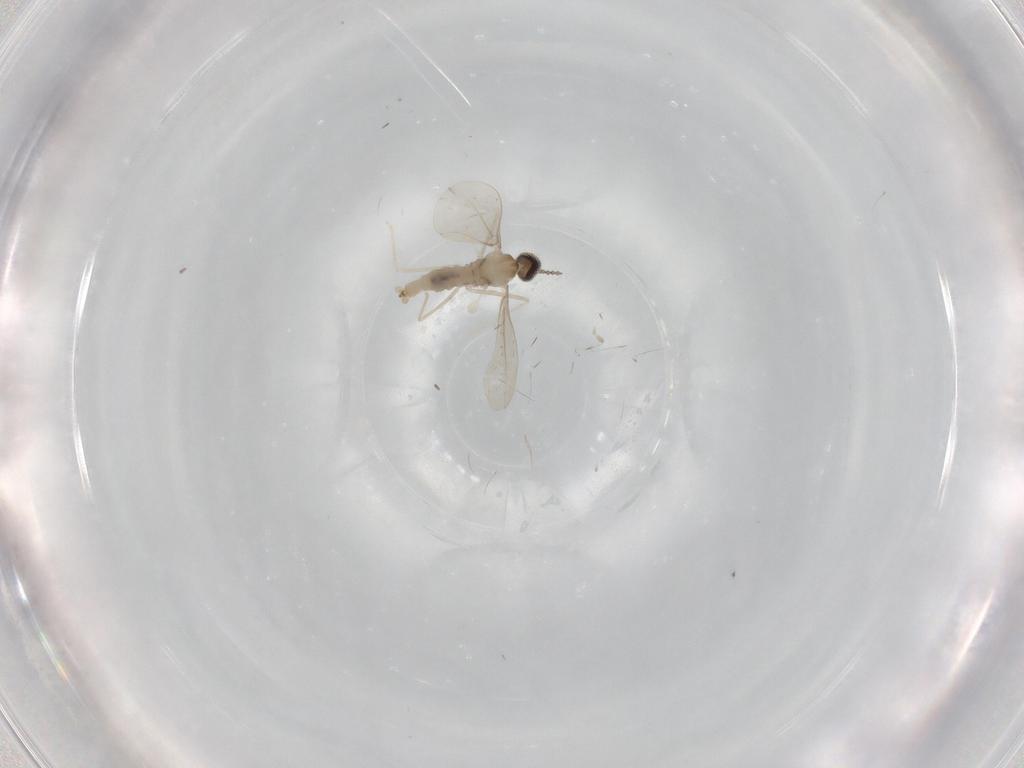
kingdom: Animalia
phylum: Arthropoda
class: Insecta
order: Diptera
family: Cecidomyiidae
